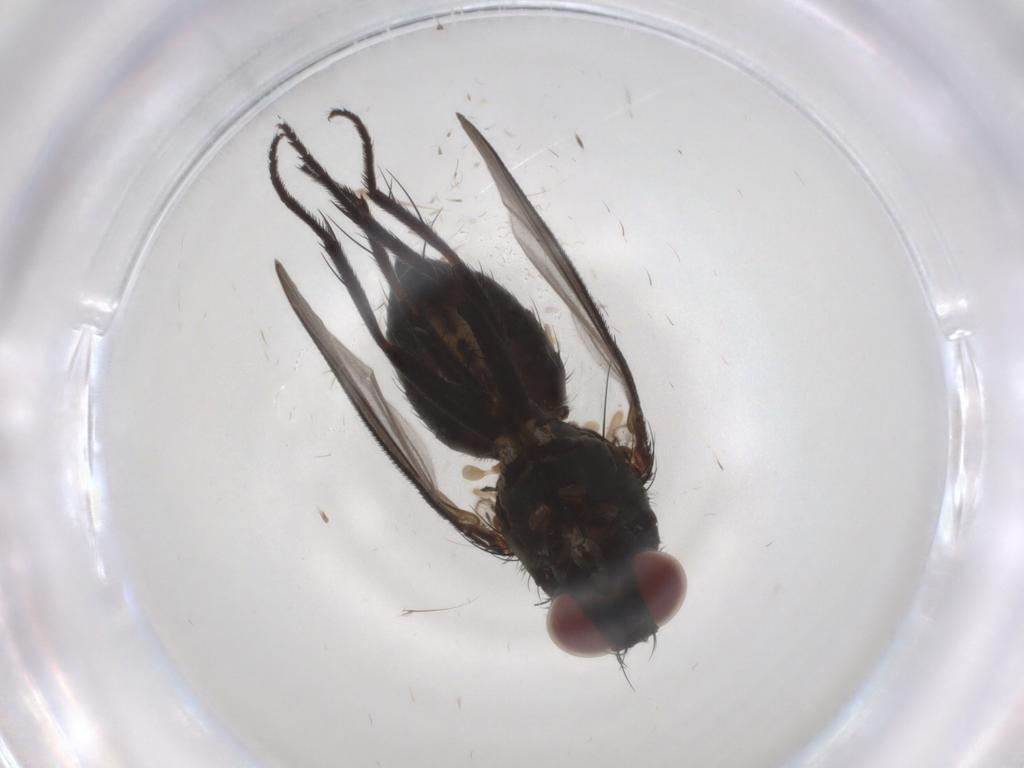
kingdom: Animalia
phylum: Arthropoda
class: Insecta
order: Diptera
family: Muscidae
